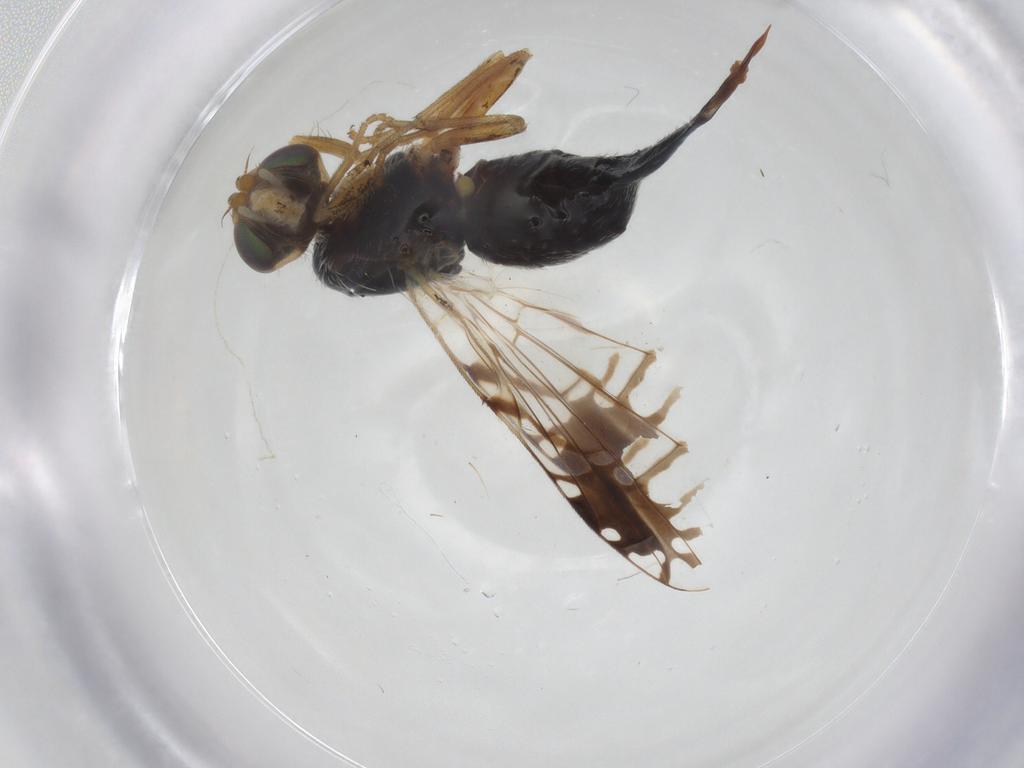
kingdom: Animalia
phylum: Arthropoda
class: Insecta
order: Diptera
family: Tephritidae
